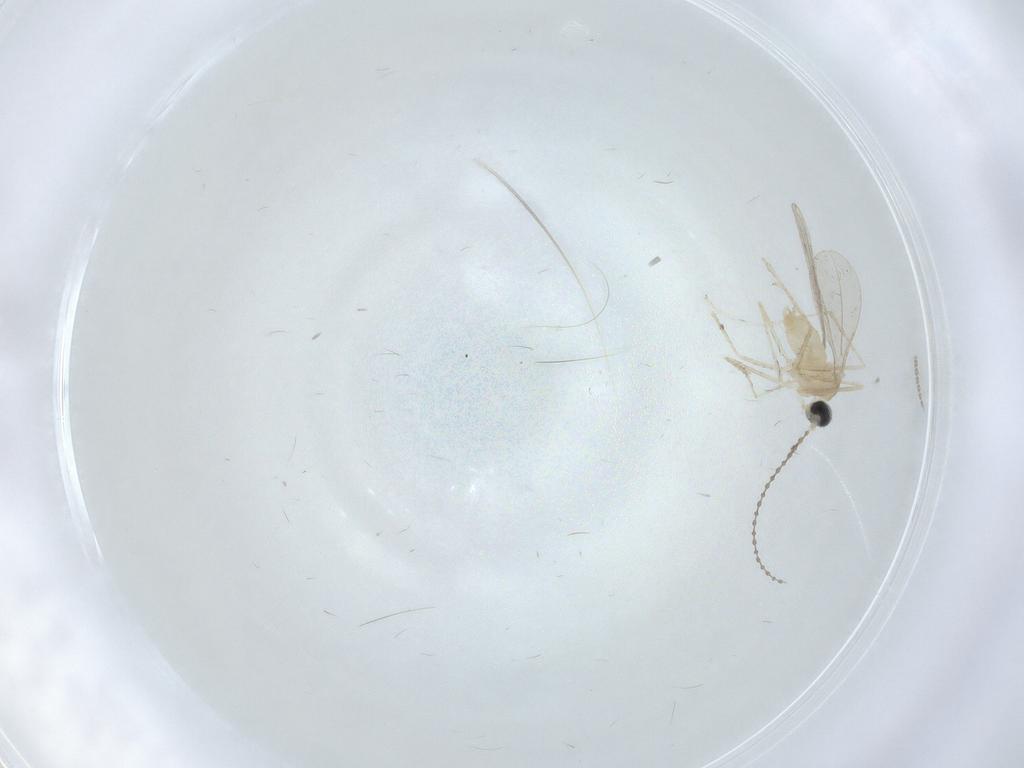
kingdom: Animalia
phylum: Arthropoda
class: Insecta
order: Diptera
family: Cecidomyiidae
